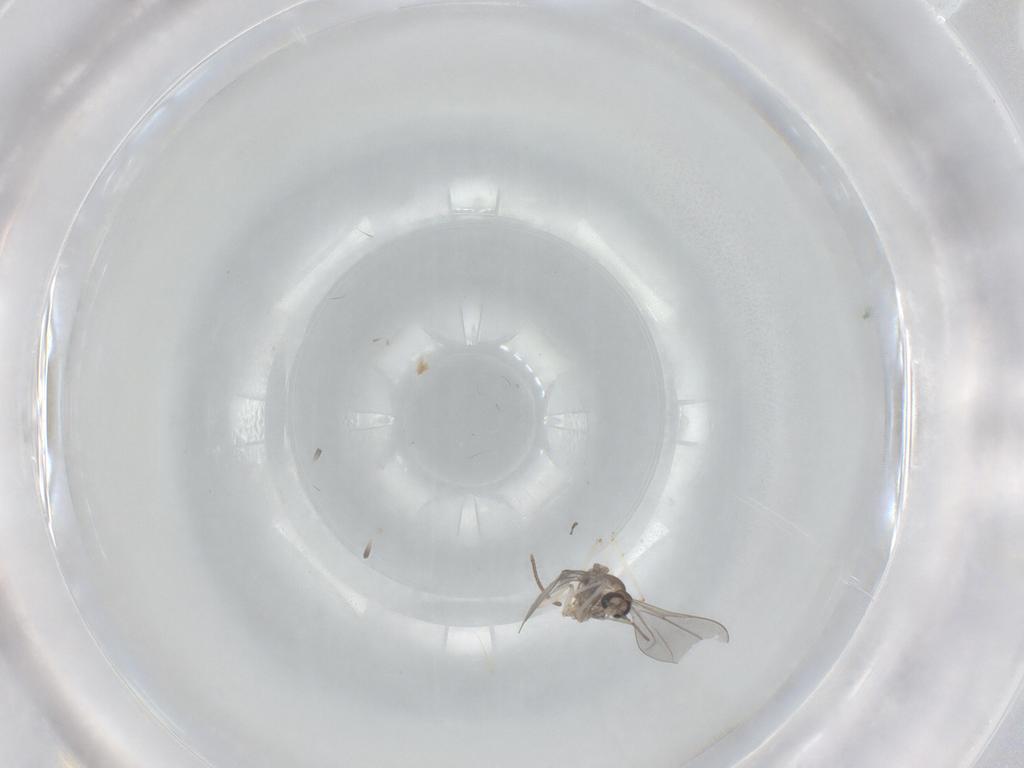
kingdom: Animalia
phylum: Arthropoda
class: Insecta
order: Diptera
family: Cecidomyiidae
